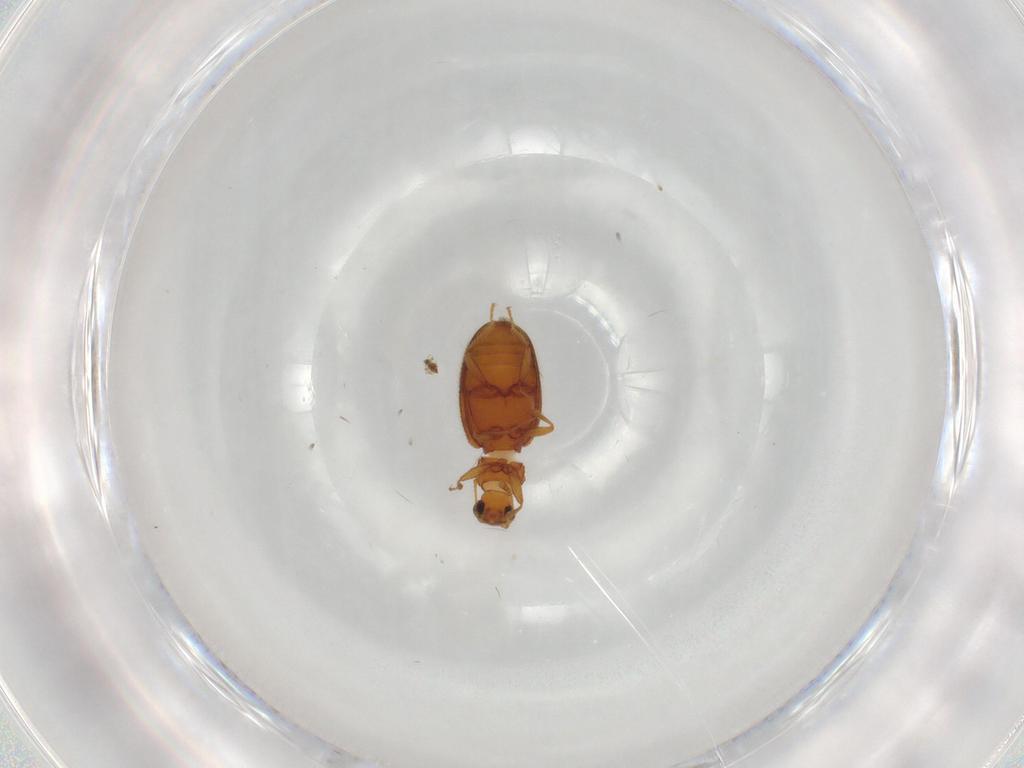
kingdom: Animalia
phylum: Arthropoda
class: Insecta
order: Coleoptera
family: Latridiidae
